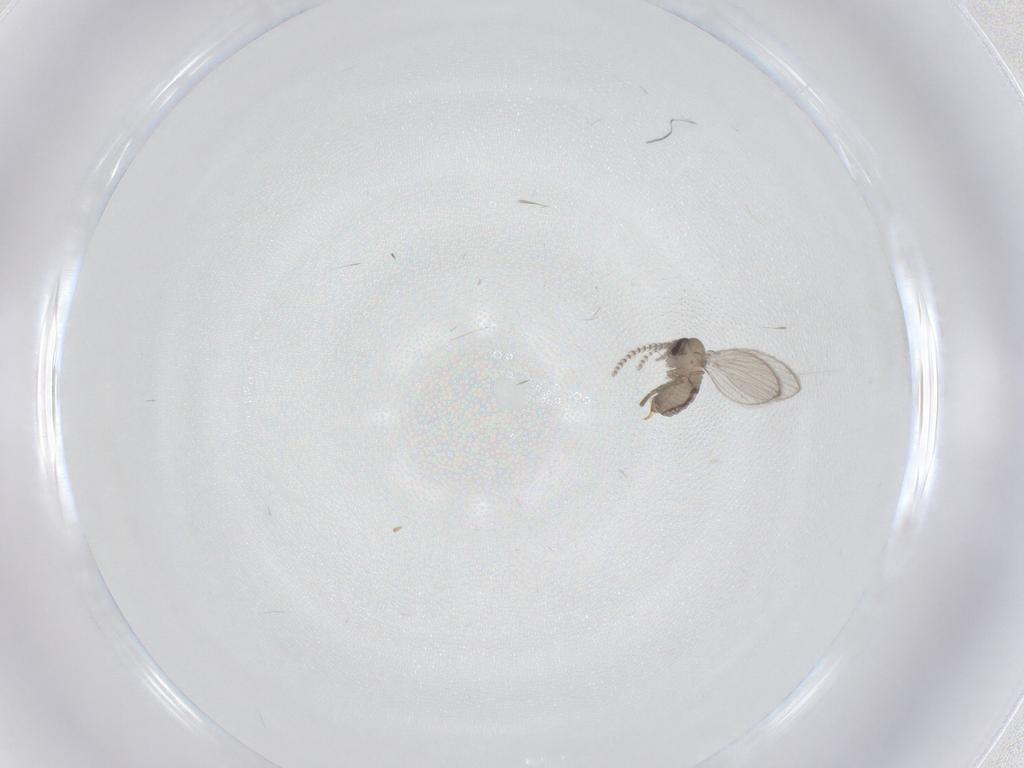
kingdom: Animalia
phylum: Arthropoda
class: Insecta
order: Diptera
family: Psychodidae
